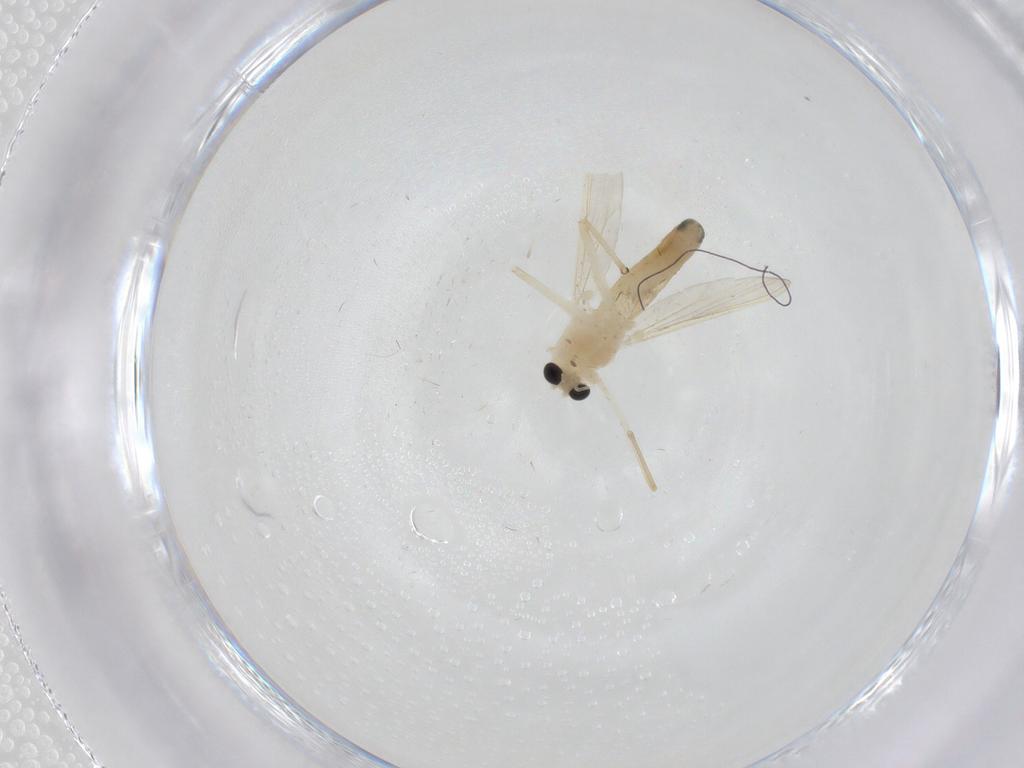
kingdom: Animalia
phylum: Arthropoda
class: Insecta
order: Diptera
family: Chironomidae
